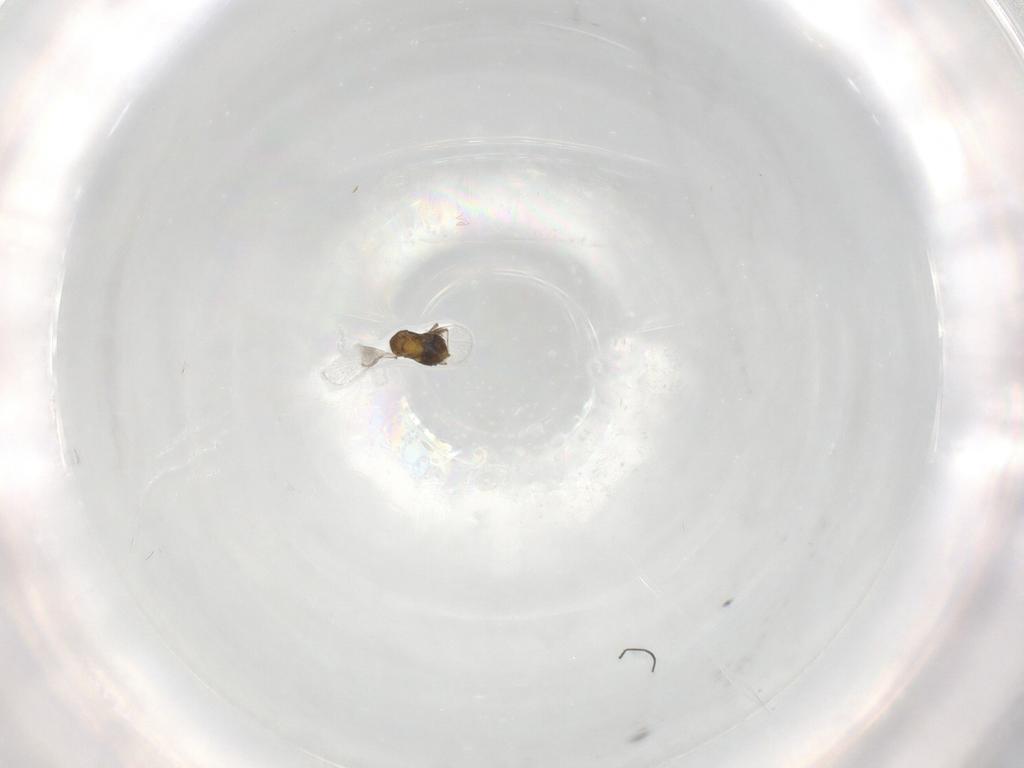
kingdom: Animalia
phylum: Arthropoda
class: Insecta
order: Hymenoptera
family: Trichogrammatidae
